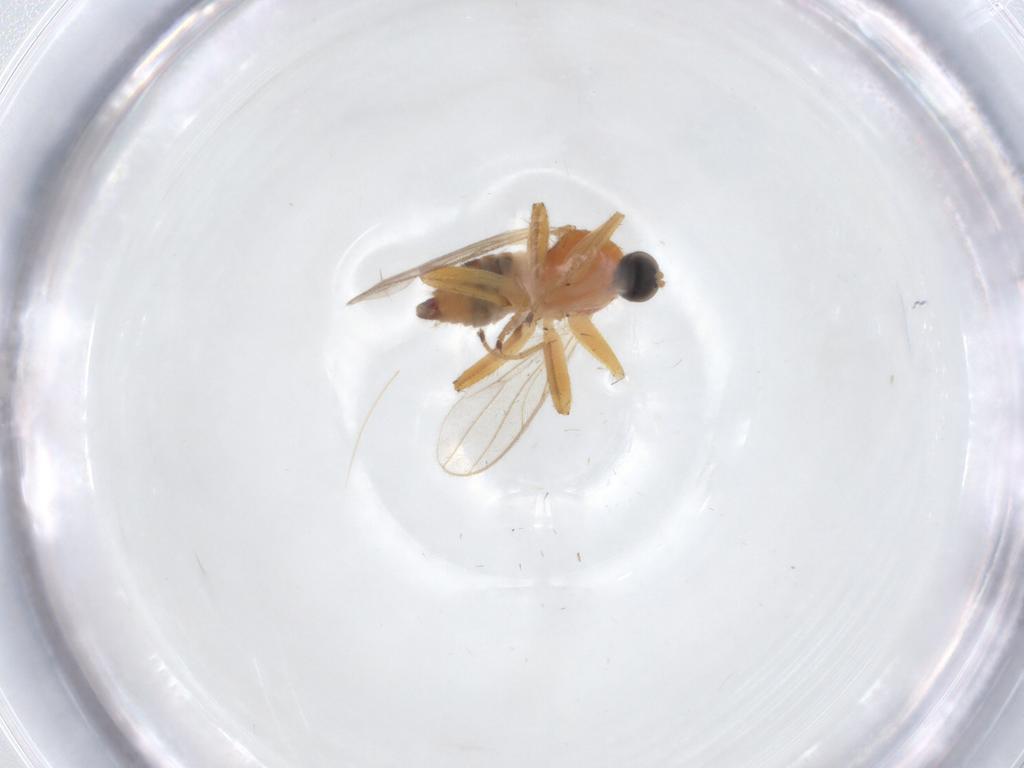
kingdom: Animalia
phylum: Arthropoda
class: Insecta
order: Diptera
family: Hybotidae
